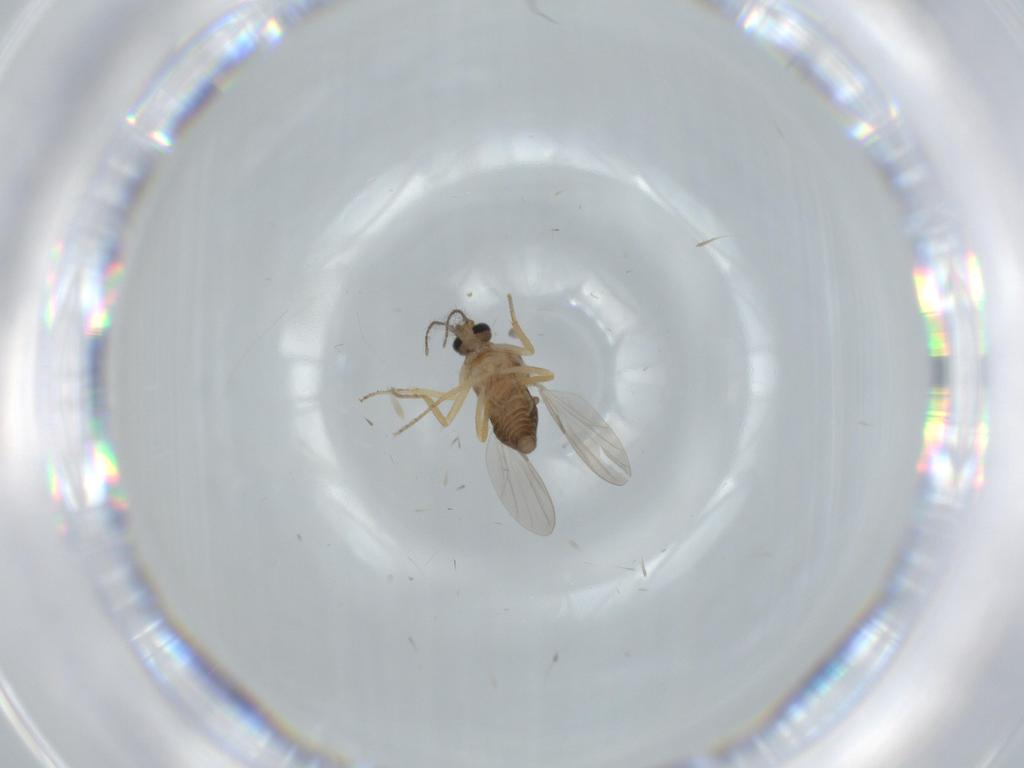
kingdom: Animalia
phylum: Arthropoda
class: Insecta
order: Diptera
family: Ceratopogonidae
